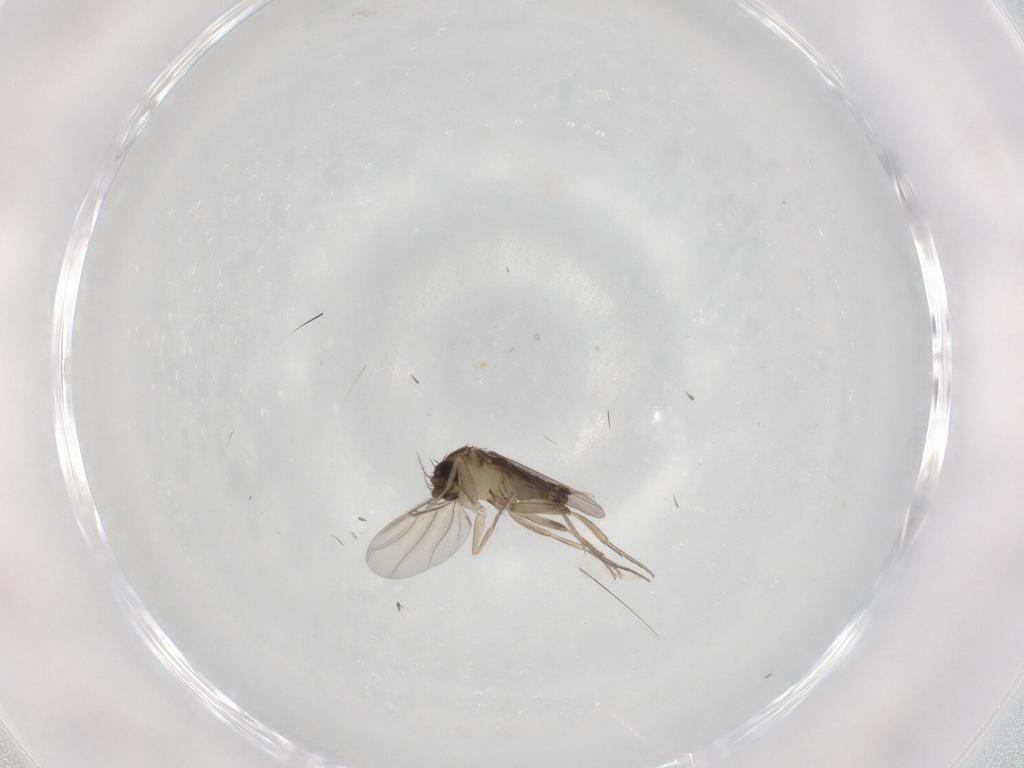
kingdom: Animalia
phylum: Arthropoda
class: Insecta
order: Diptera
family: Phoridae
